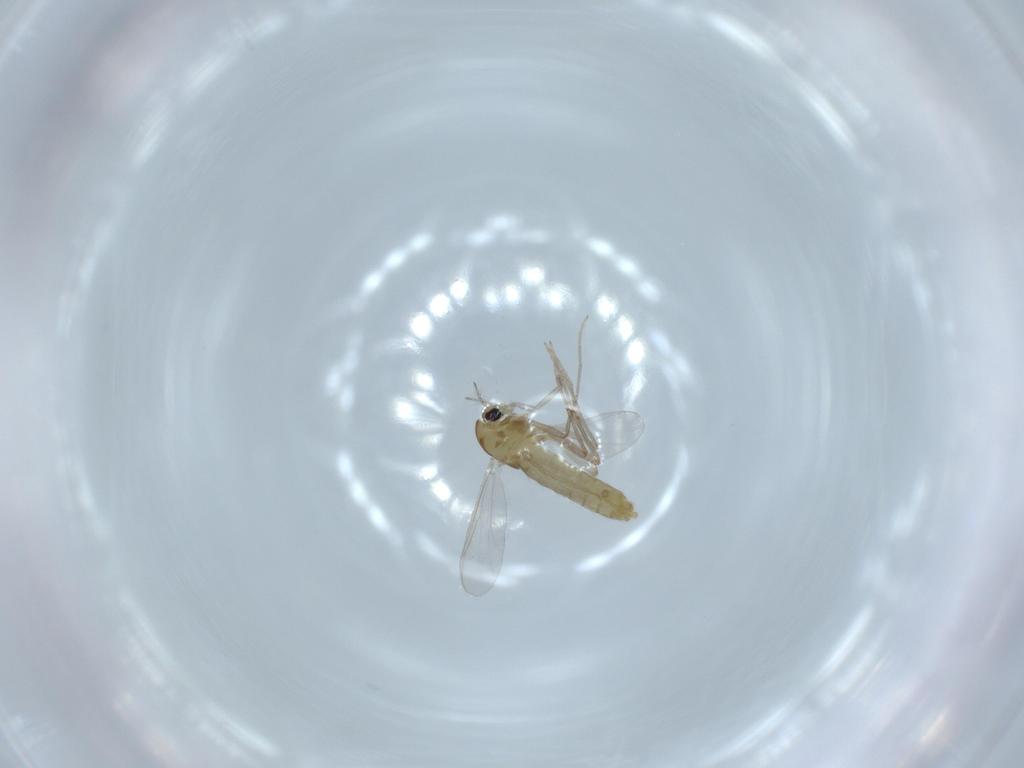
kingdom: Animalia
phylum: Arthropoda
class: Insecta
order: Diptera
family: Chironomidae
